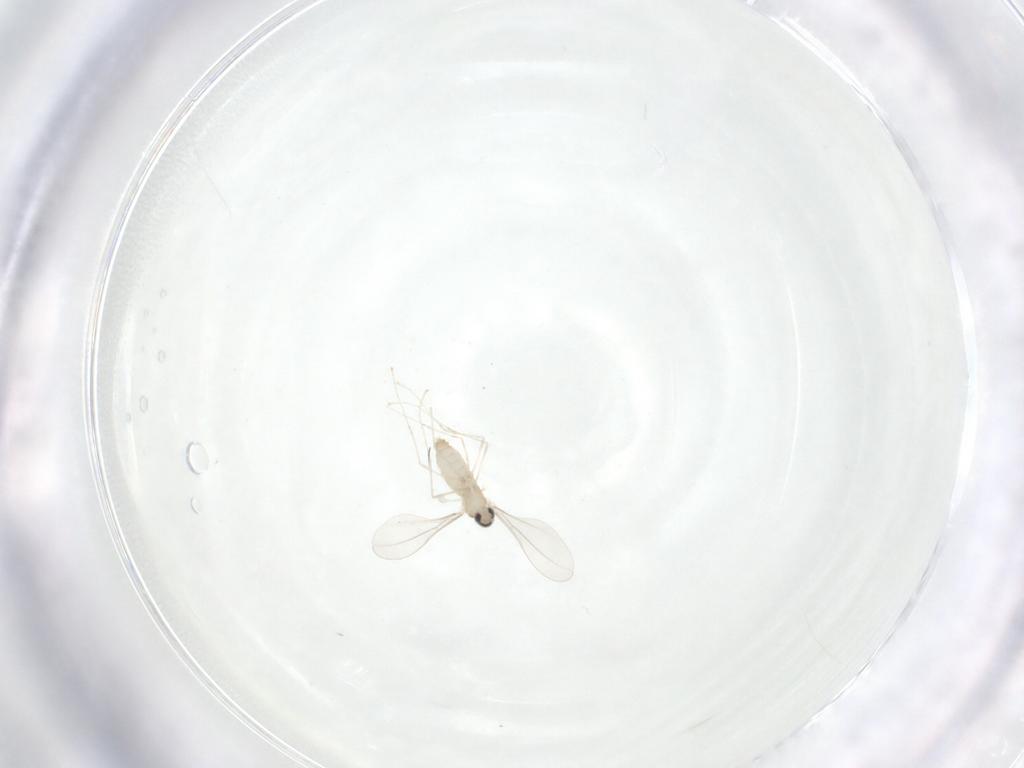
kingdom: Animalia
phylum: Arthropoda
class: Insecta
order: Diptera
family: Cecidomyiidae
